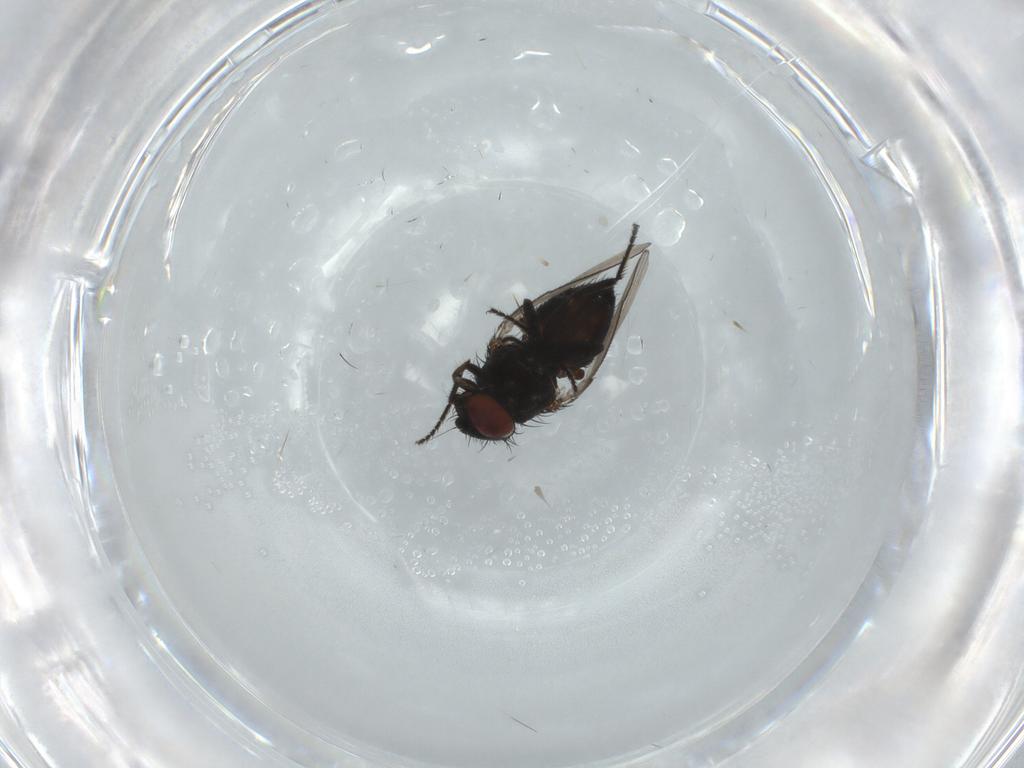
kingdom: Animalia
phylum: Arthropoda
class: Insecta
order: Diptera
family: Milichiidae
